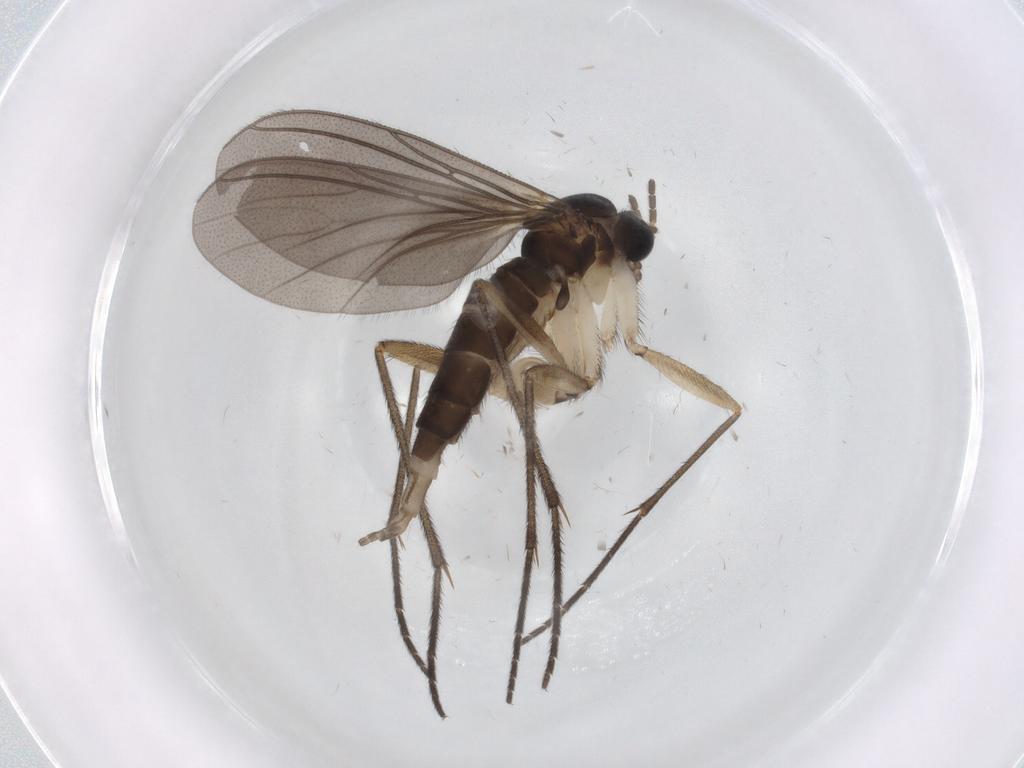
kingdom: Animalia
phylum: Arthropoda
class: Insecta
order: Diptera
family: Sciaridae
